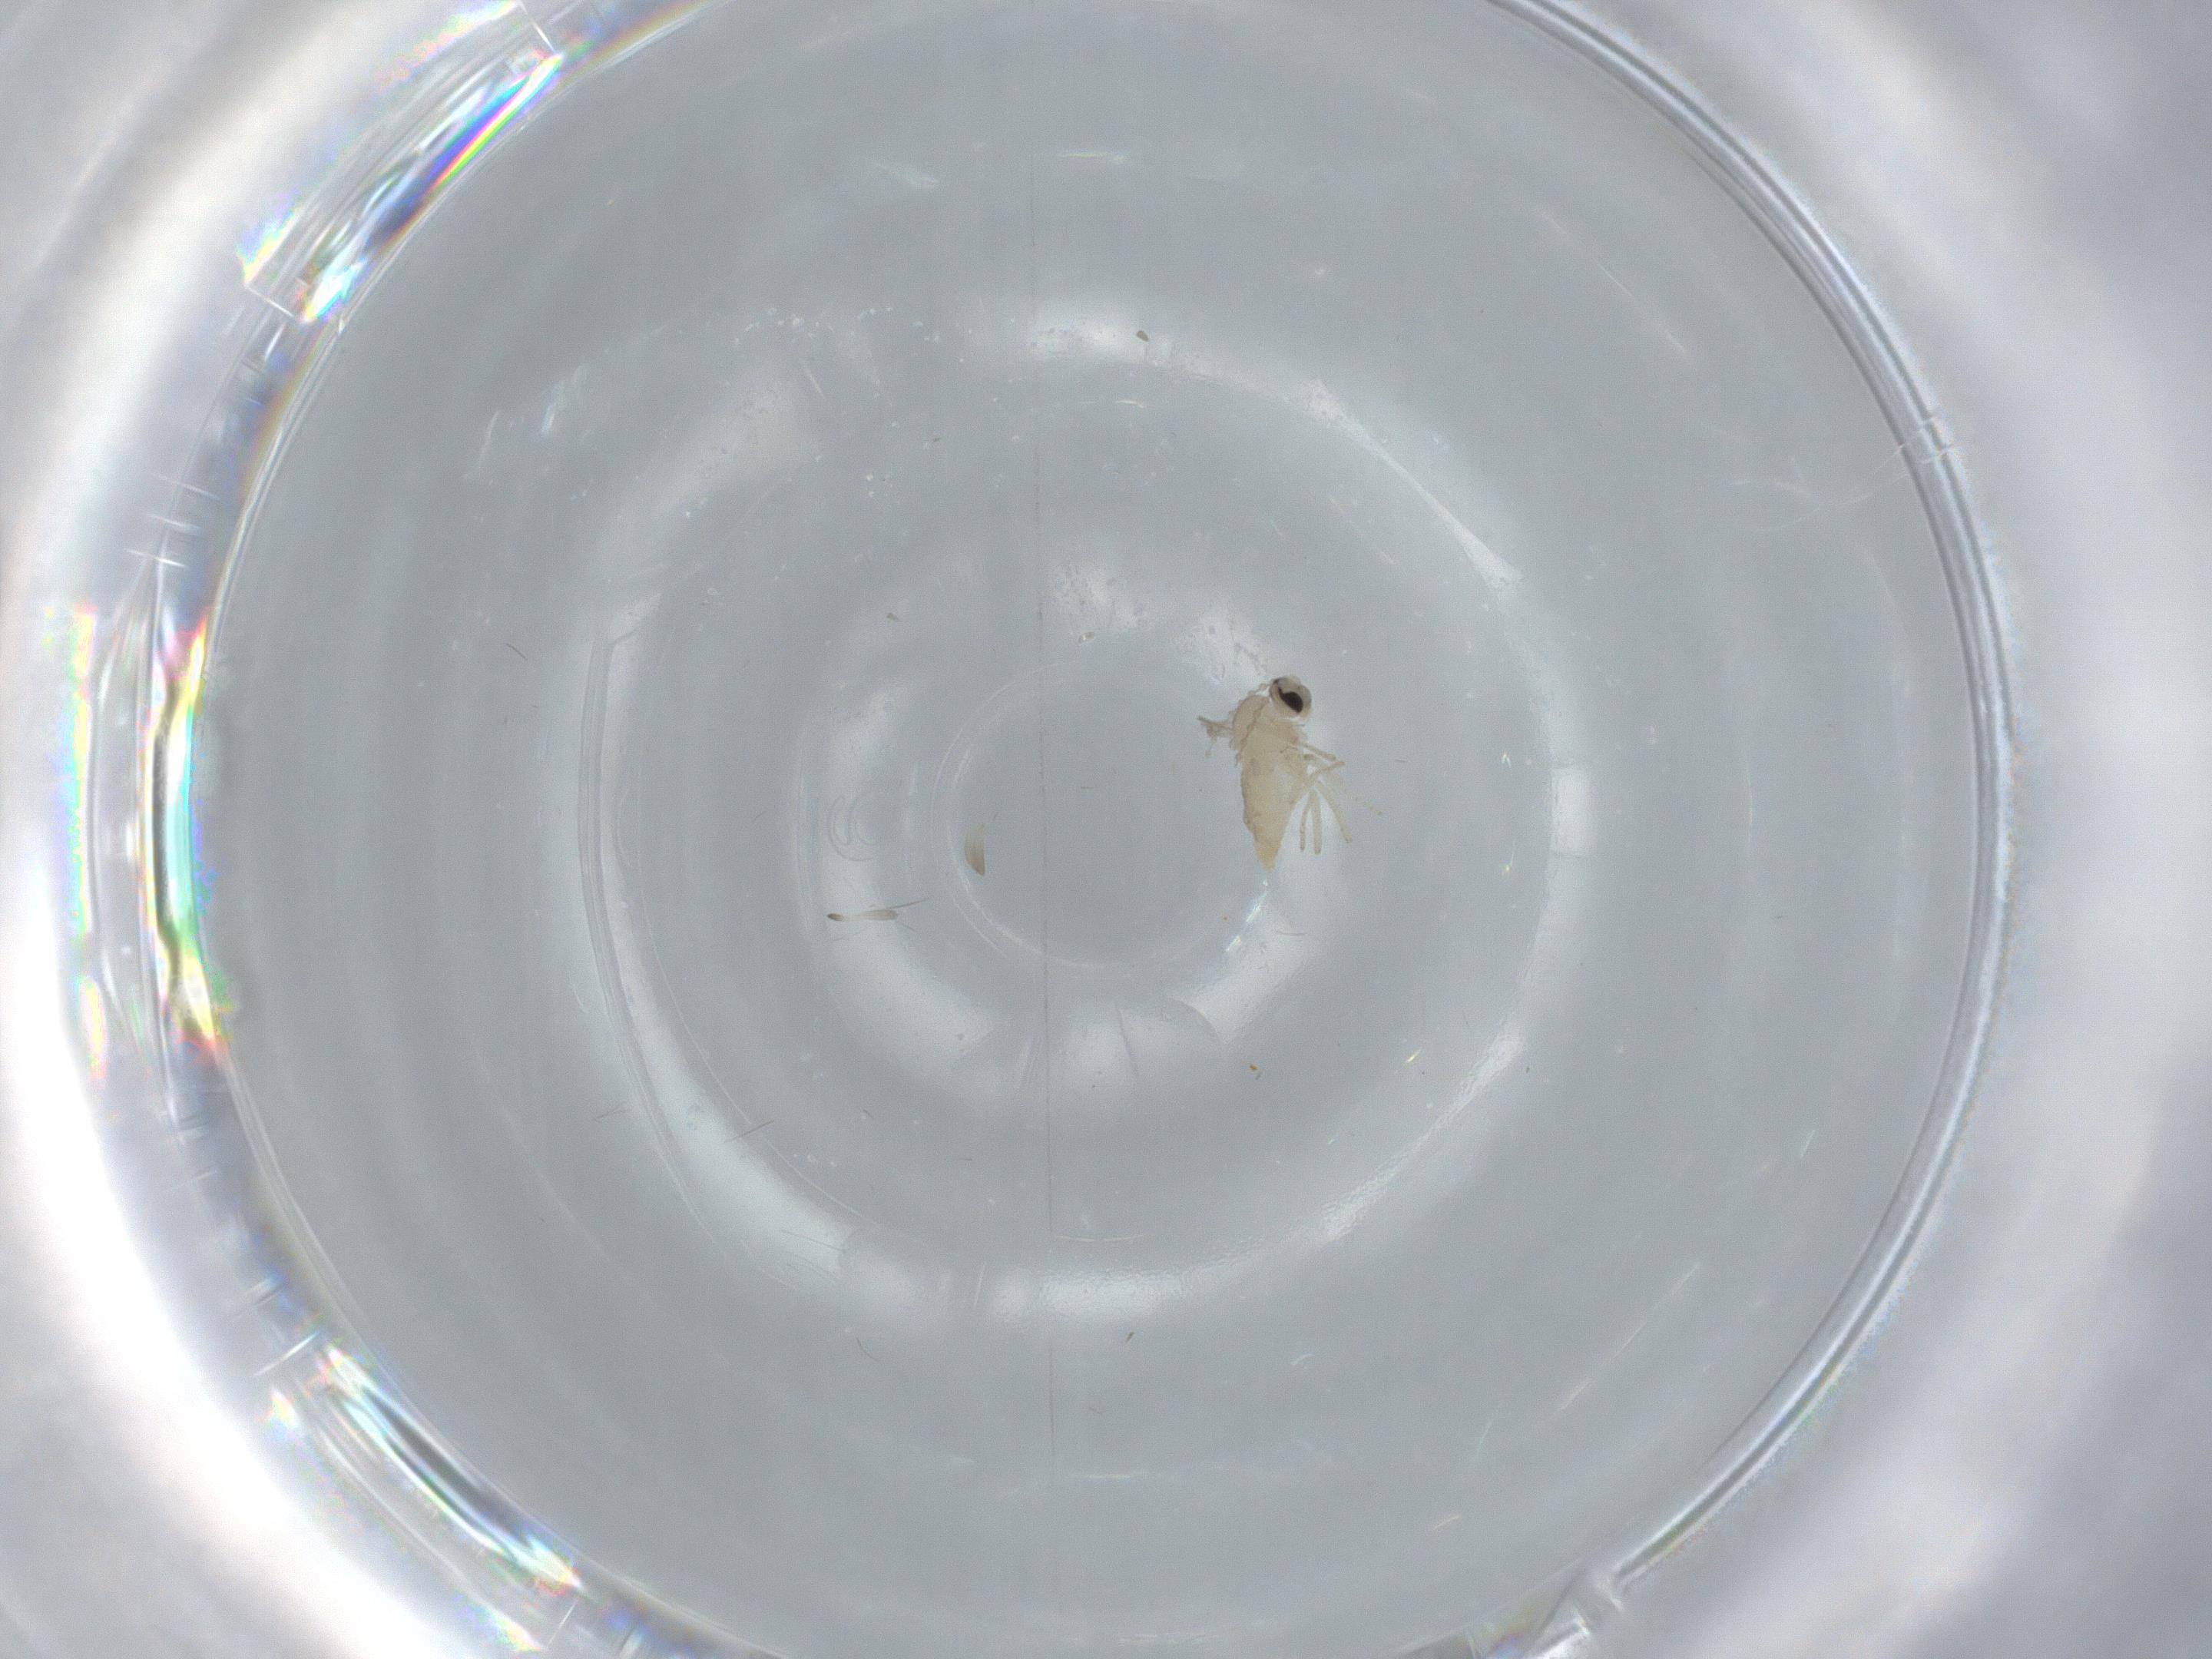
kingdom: Animalia
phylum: Arthropoda
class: Insecta
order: Diptera
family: Cecidomyiidae
